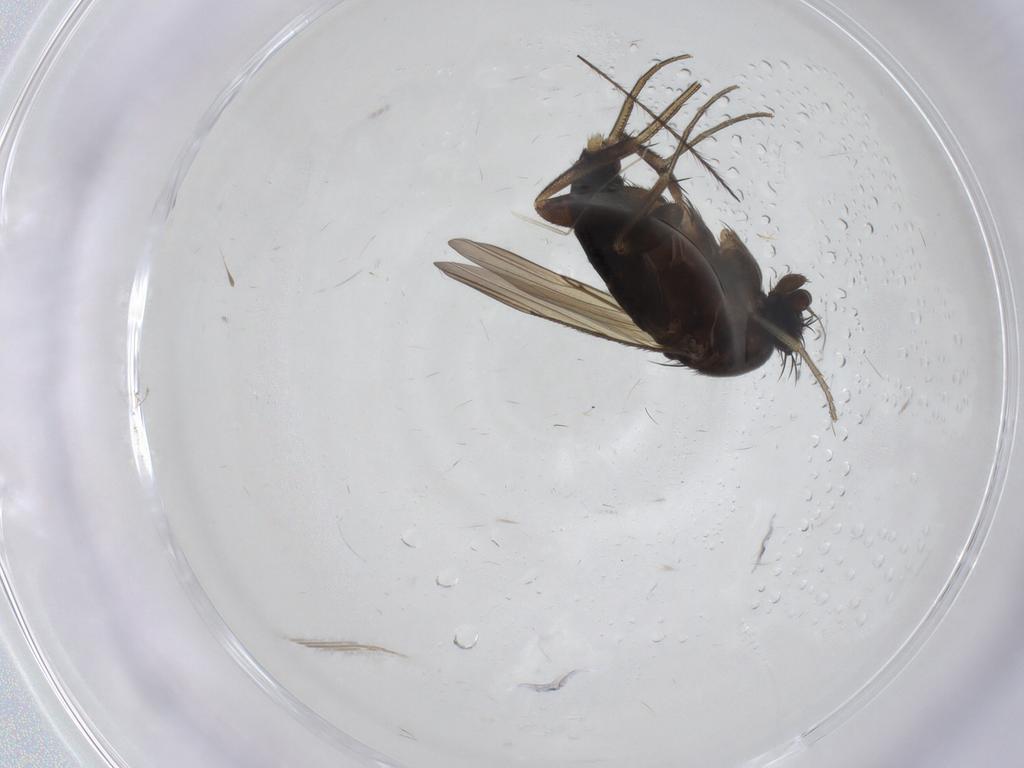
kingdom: Animalia
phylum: Arthropoda
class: Insecta
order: Diptera
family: Phoridae
